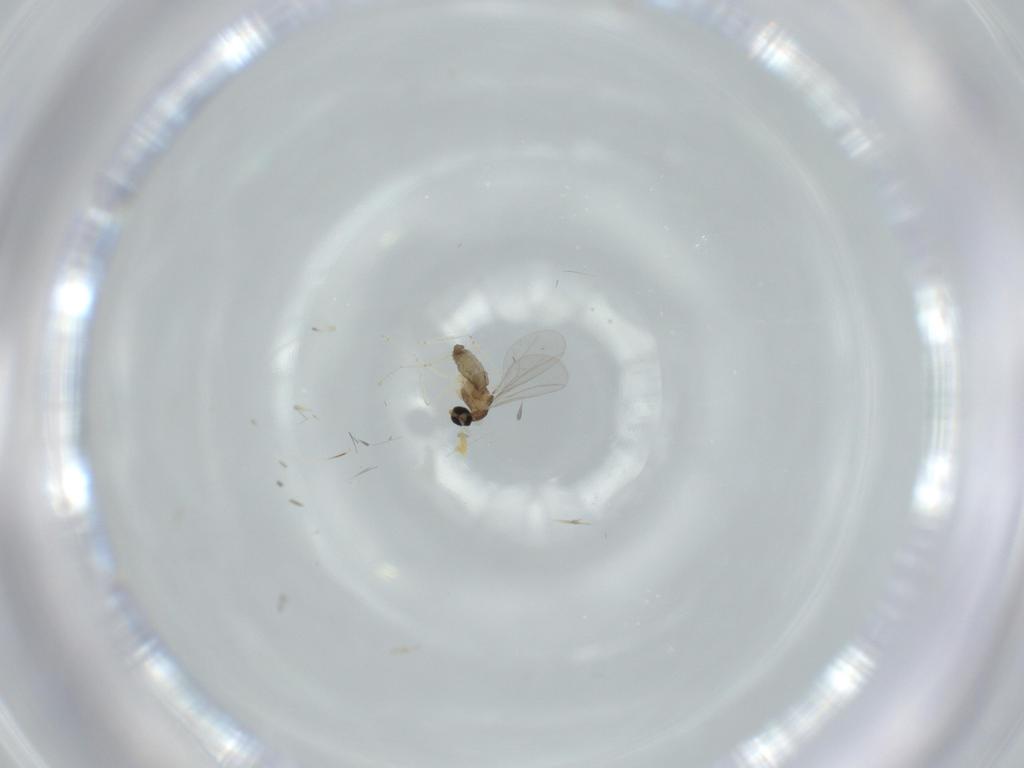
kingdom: Animalia
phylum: Arthropoda
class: Insecta
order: Diptera
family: Cecidomyiidae
